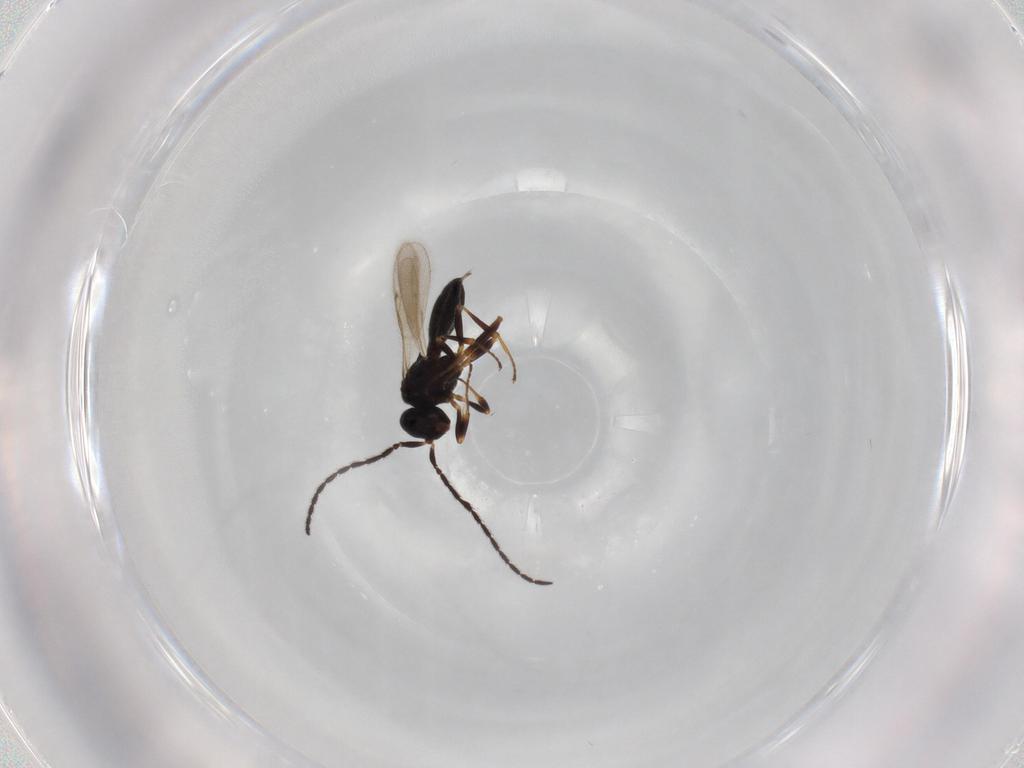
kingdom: Animalia
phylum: Arthropoda
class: Insecta
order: Hymenoptera
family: Scelionidae
